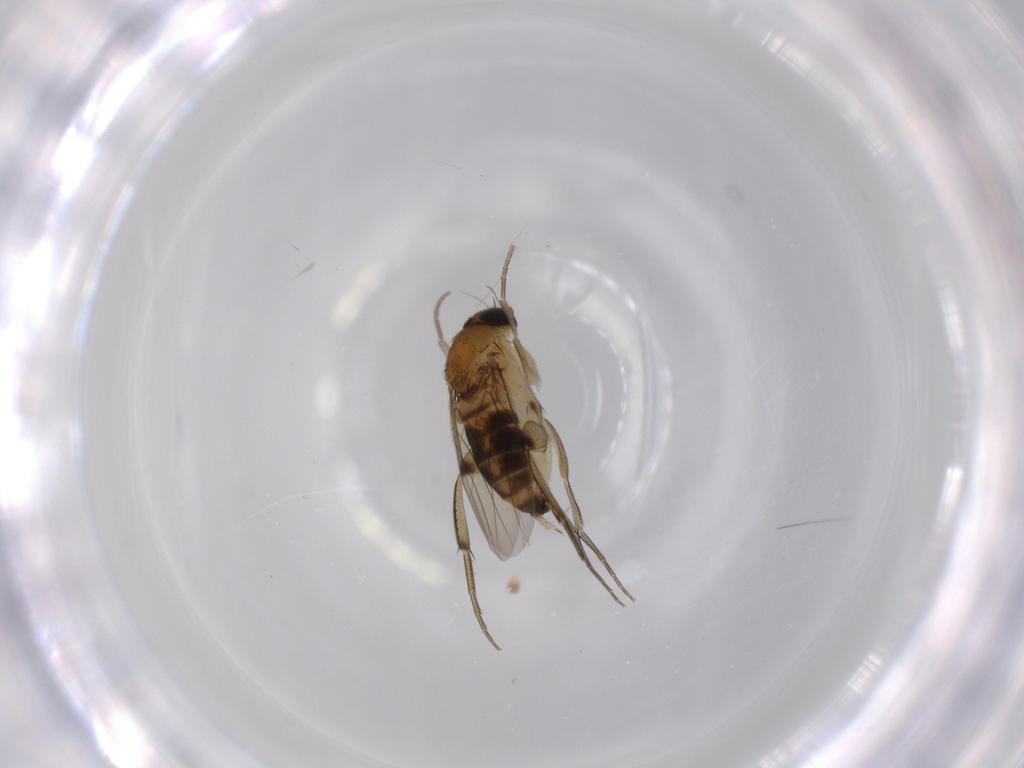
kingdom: Animalia
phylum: Arthropoda
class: Insecta
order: Diptera
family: Phoridae
